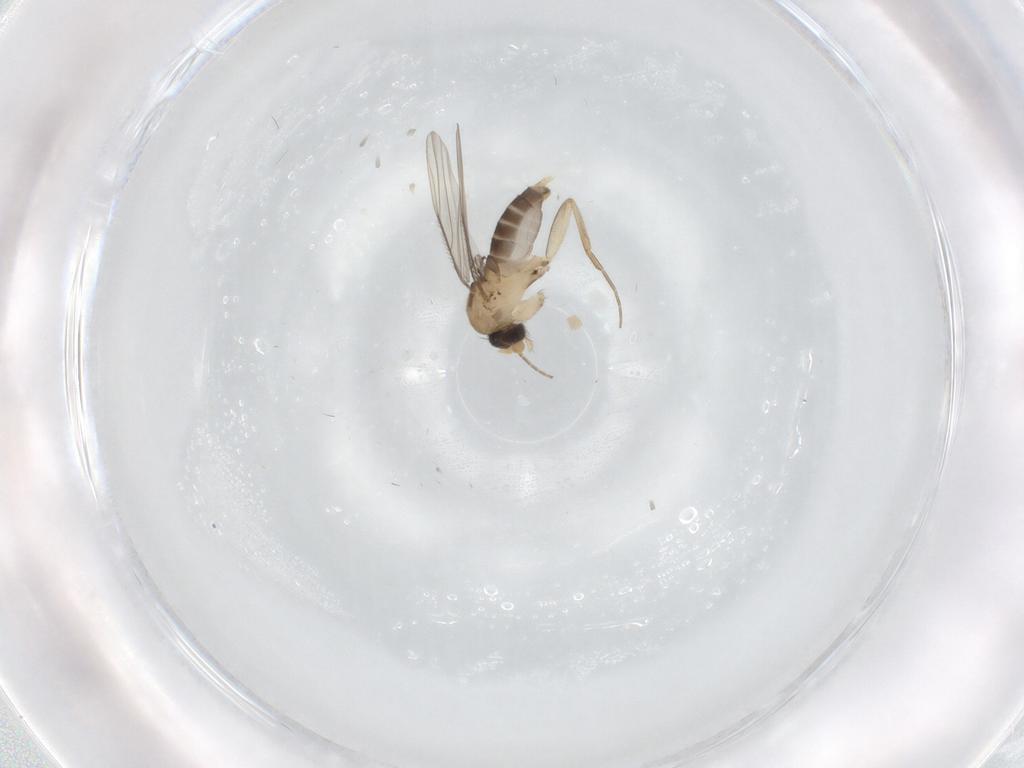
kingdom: Animalia
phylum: Arthropoda
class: Insecta
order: Diptera
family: Phoridae
